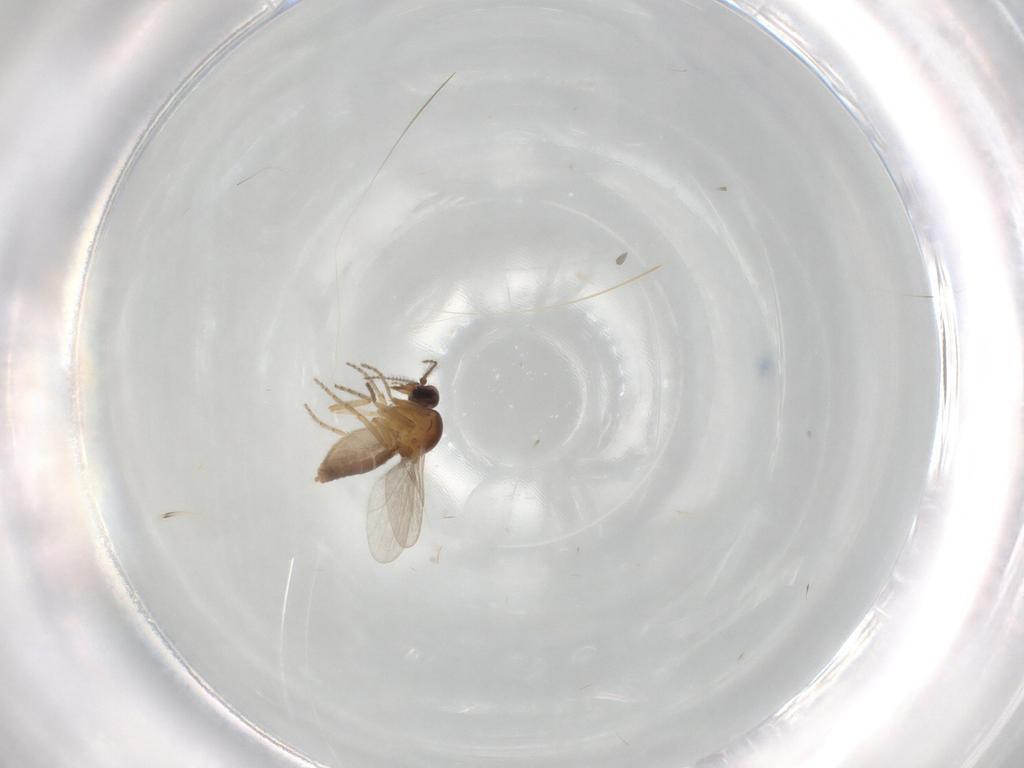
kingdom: Animalia
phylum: Arthropoda
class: Insecta
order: Diptera
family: Ceratopogonidae
